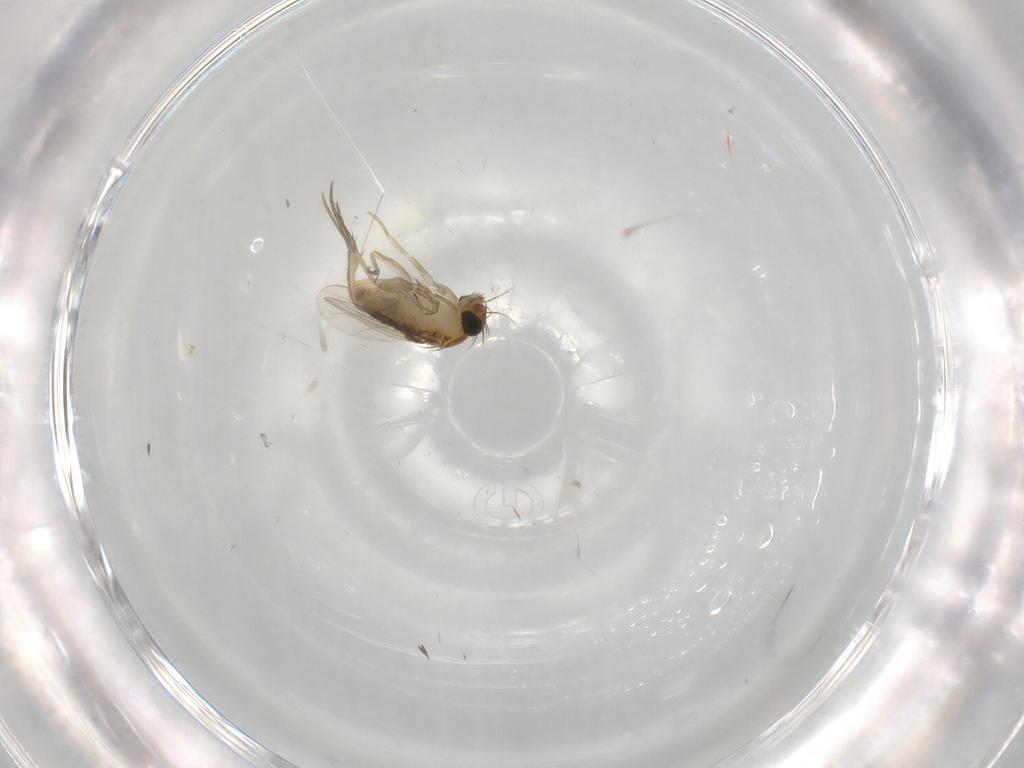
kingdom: Animalia
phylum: Arthropoda
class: Insecta
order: Diptera
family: Phoridae
